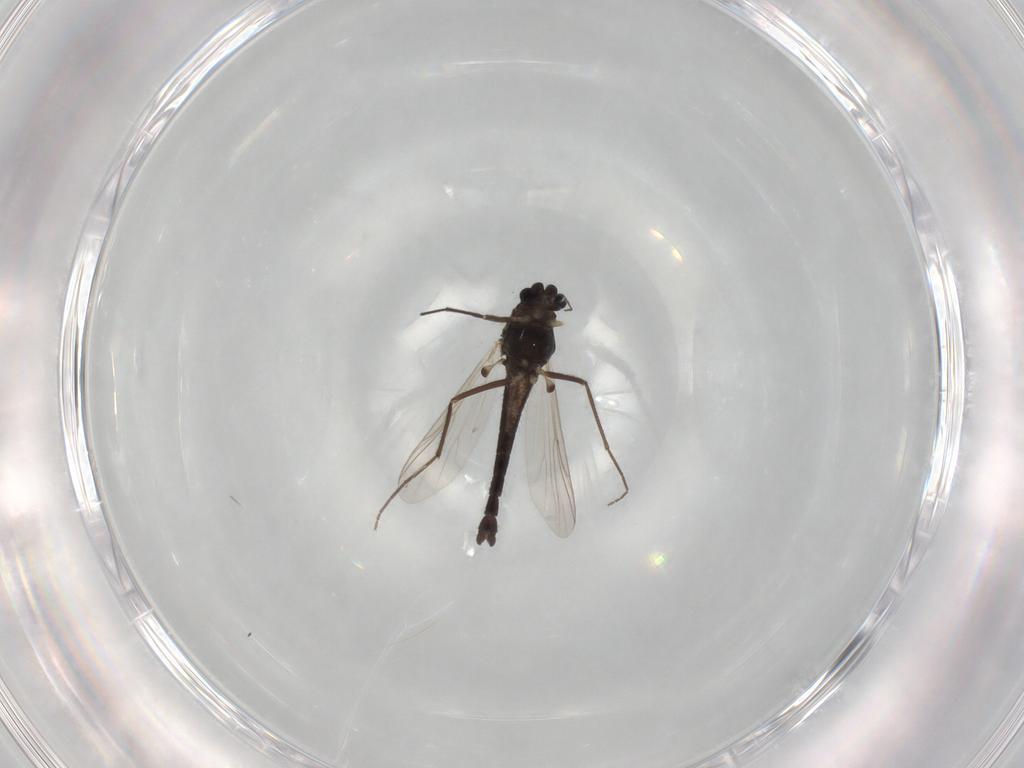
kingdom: Animalia
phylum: Arthropoda
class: Insecta
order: Diptera
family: Chironomidae
